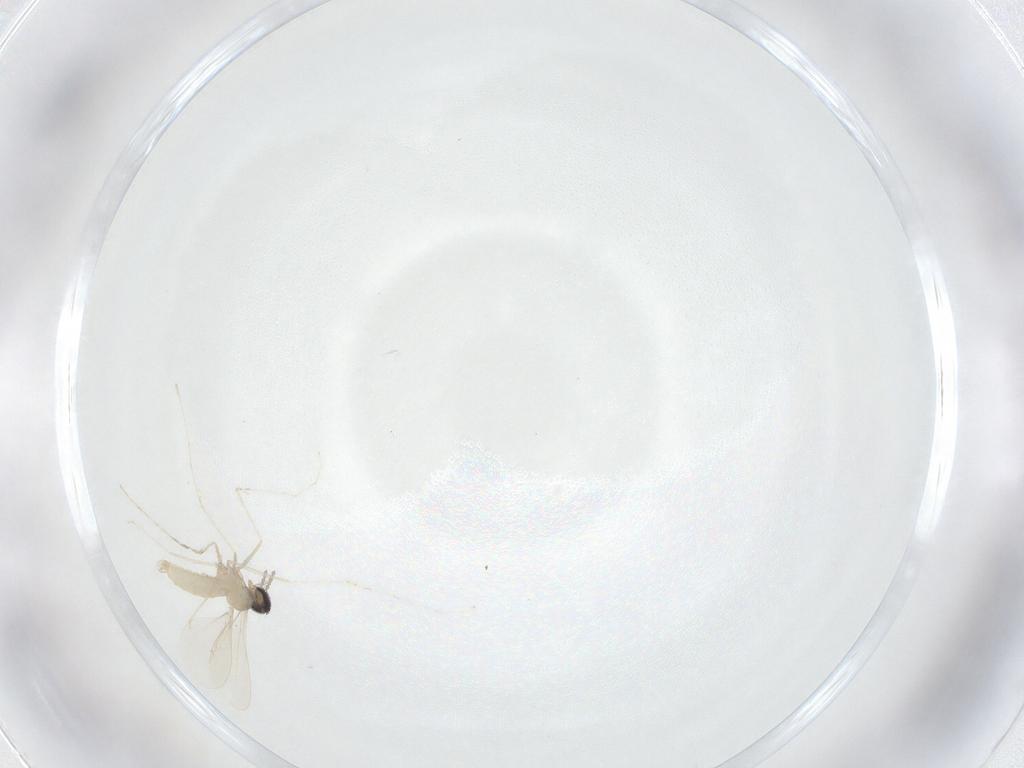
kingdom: Animalia
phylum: Arthropoda
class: Insecta
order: Diptera
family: Cecidomyiidae
